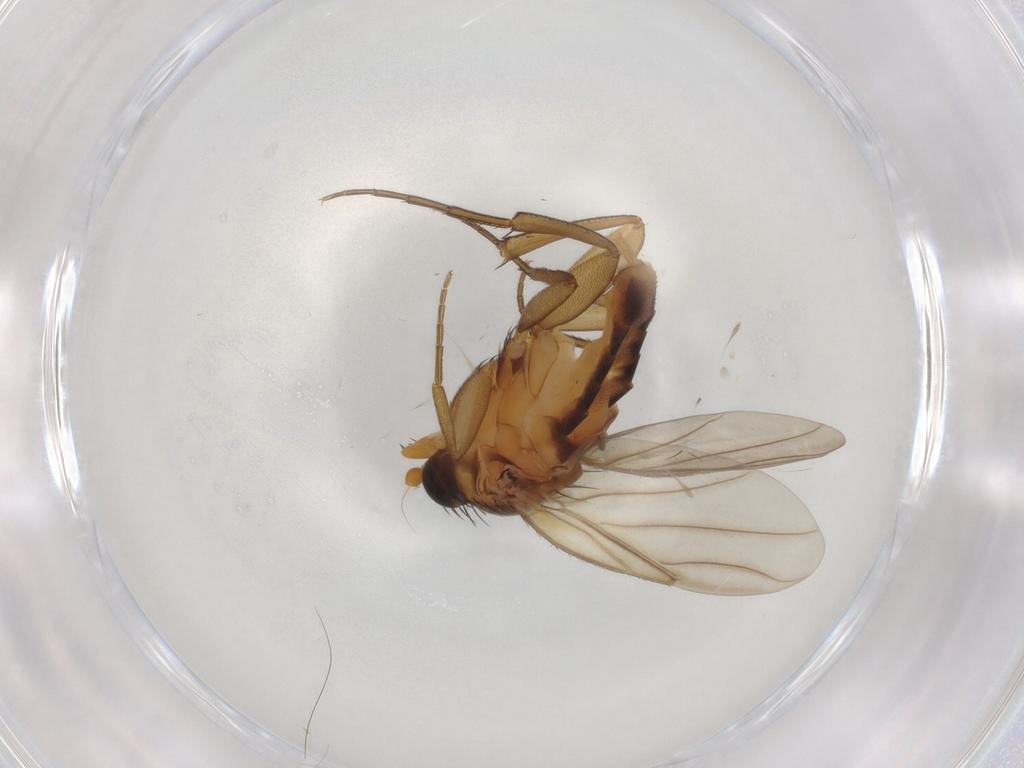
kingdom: Animalia
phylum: Arthropoda
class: Insecta
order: Diptera
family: Phoridae
